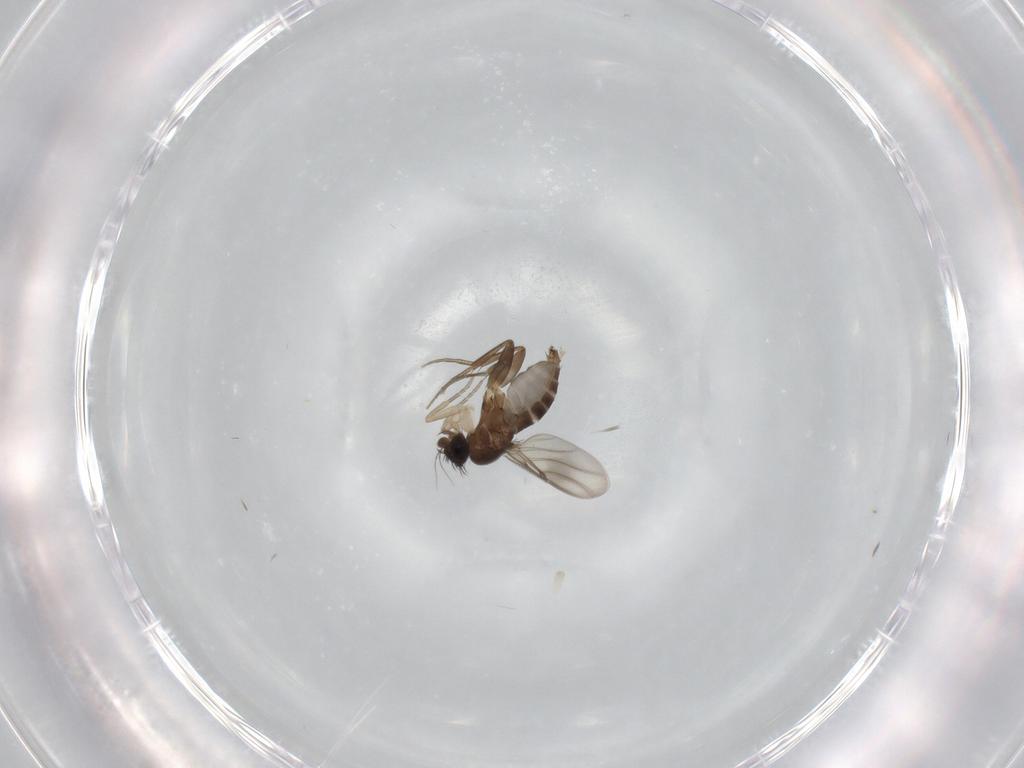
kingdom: Animalia
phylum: Arthropoda
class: Insecta
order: Diptera
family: Phoridae
